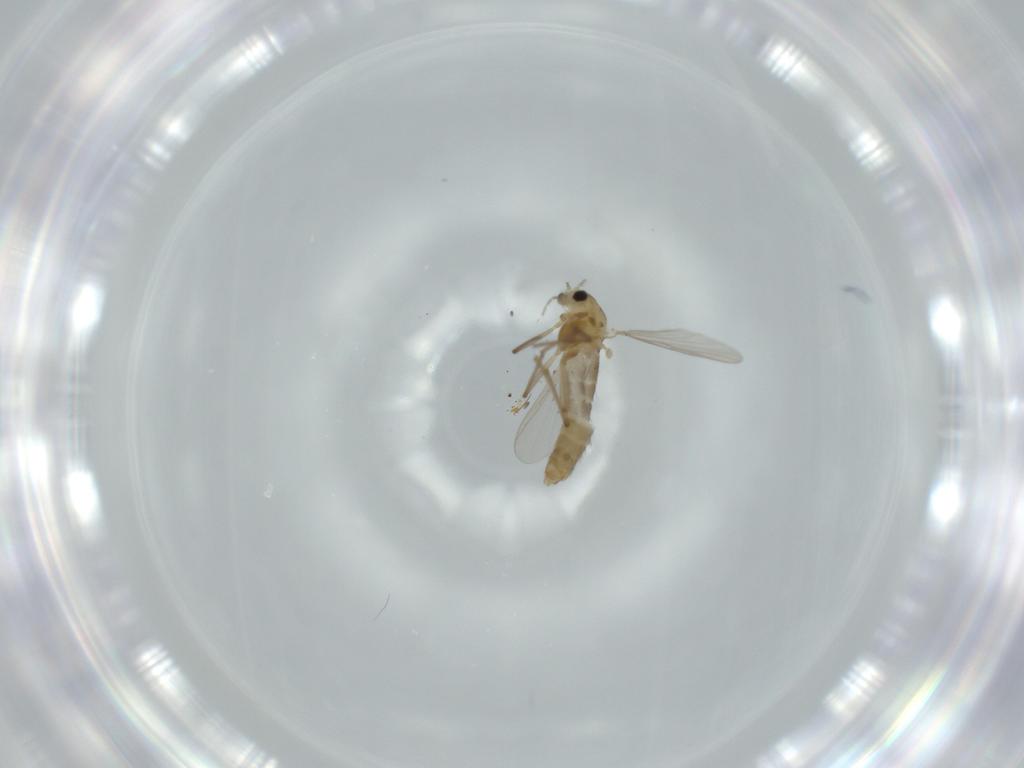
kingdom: Animalia
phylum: Arthropoda
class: Insecta
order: Diptera
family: Chironomidae
